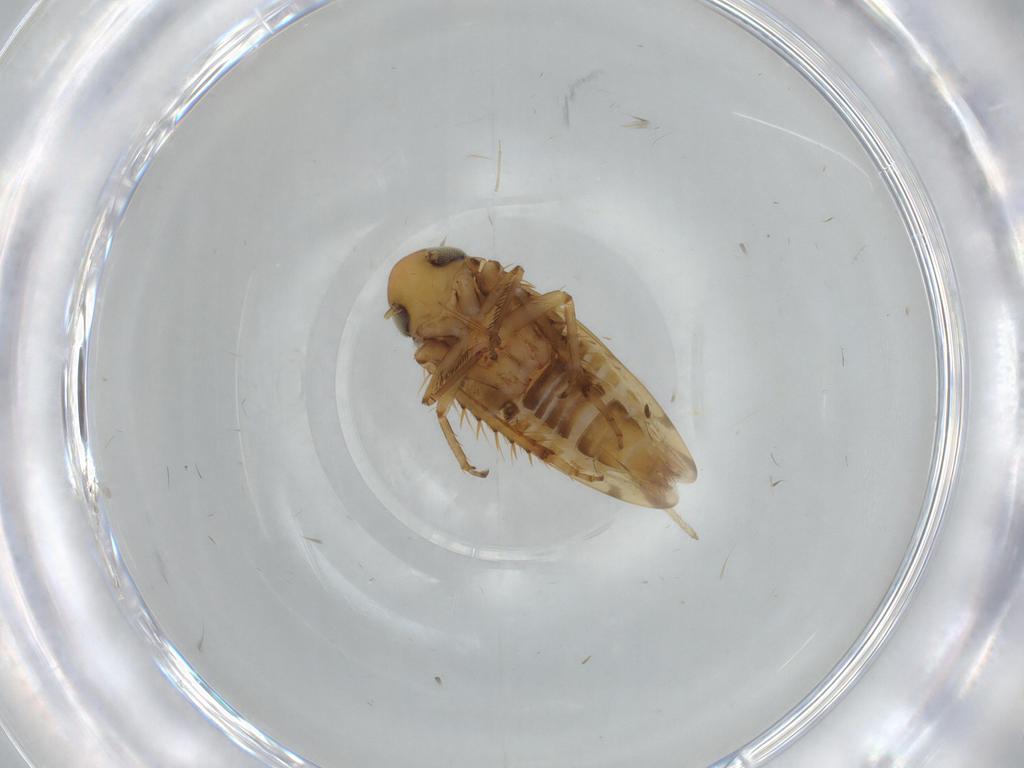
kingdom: Animalia
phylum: Arthropoda
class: Insecta
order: Hemiptera
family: Cicadellidae
